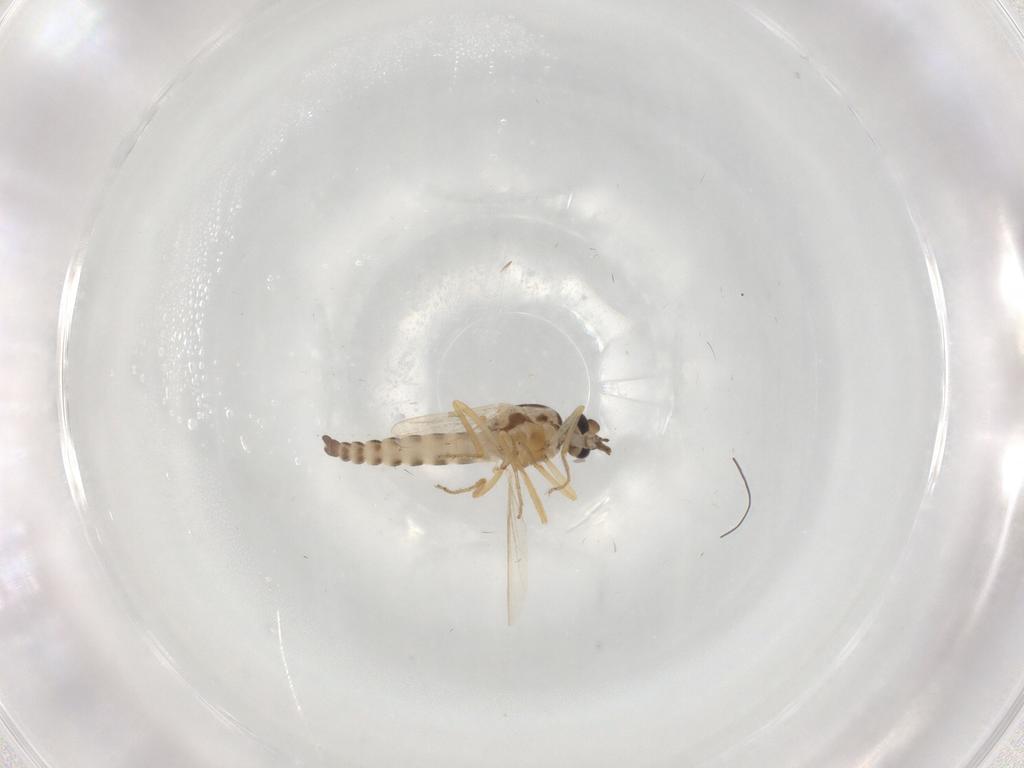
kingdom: Animalia
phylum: Arthropoda
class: Insecta
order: Diptera
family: Ceratopogonidae
